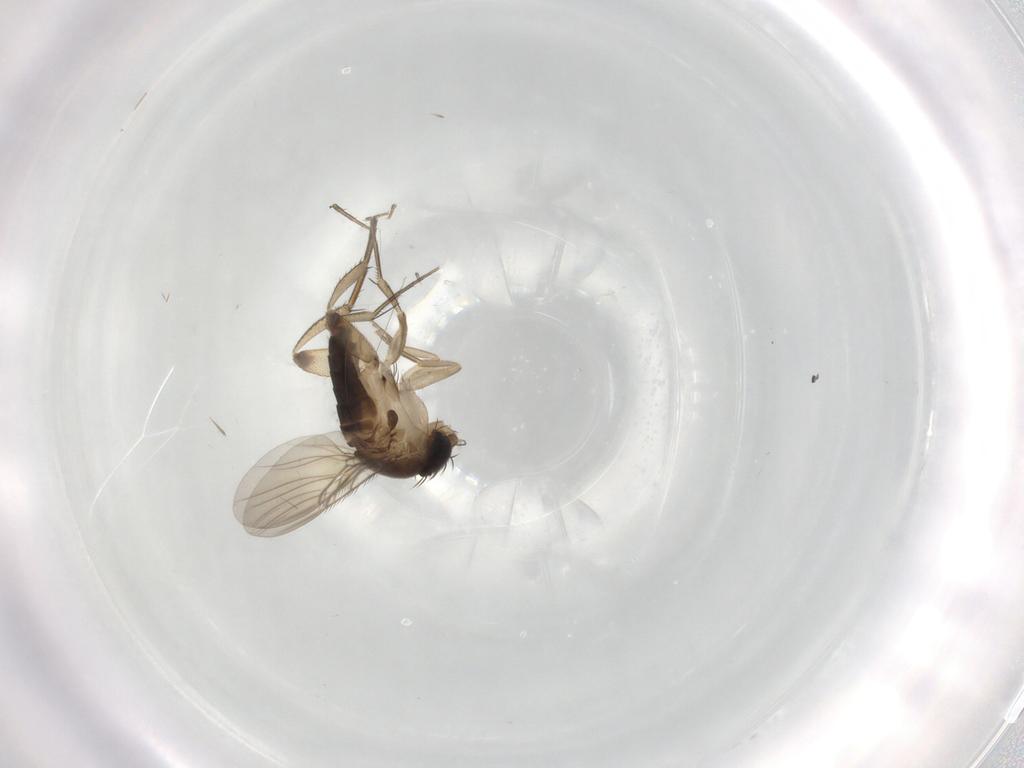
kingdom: Animalia
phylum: Arthropoda
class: Insecta
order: Diptera
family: Phoridae
